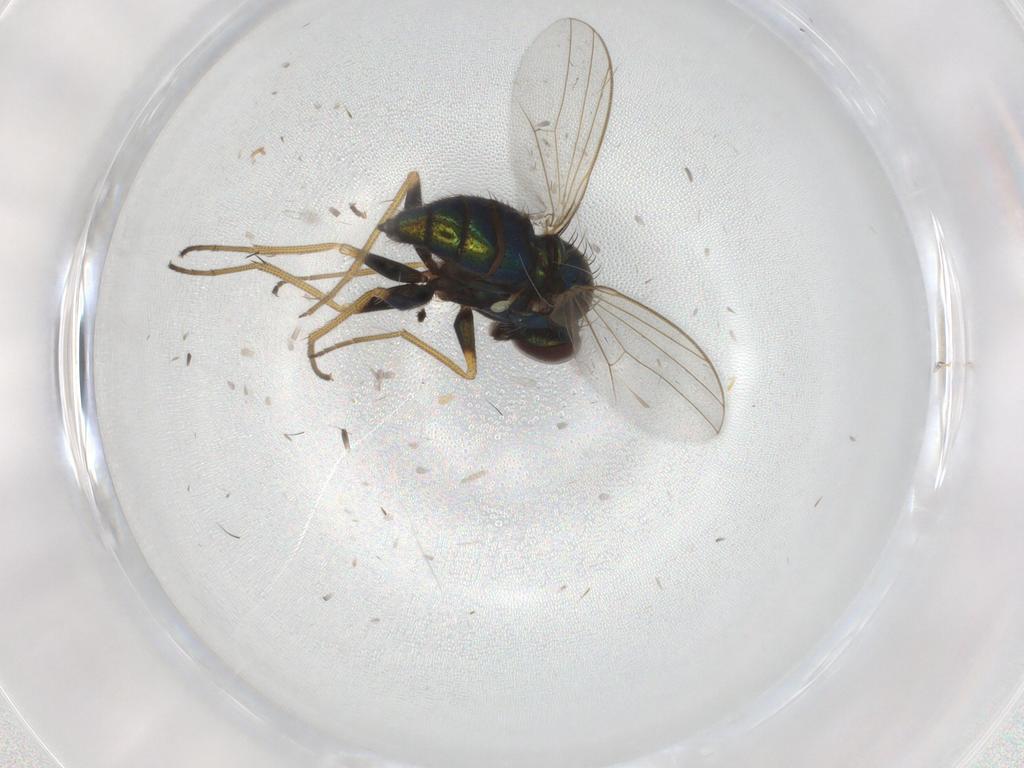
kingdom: Animalia
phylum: Arthropoda
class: Insecta
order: Diptera
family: Dolichopodidae
